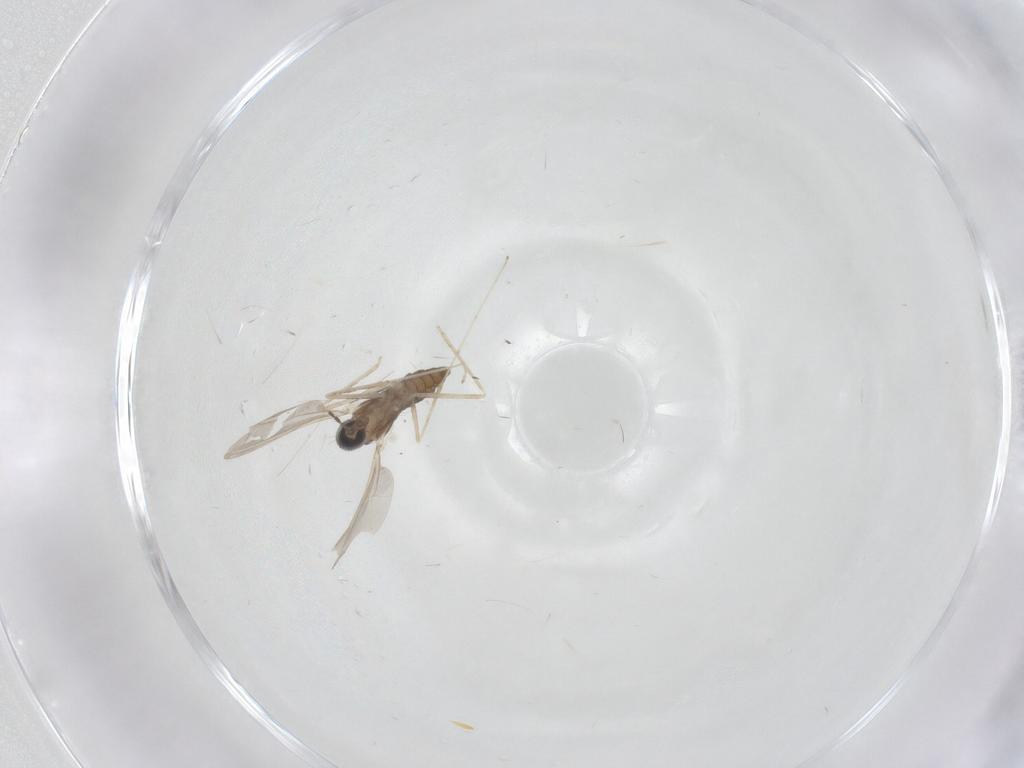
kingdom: Animalia
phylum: Arthropoda
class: Insecta
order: Diptera
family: Cecidomyiidae
